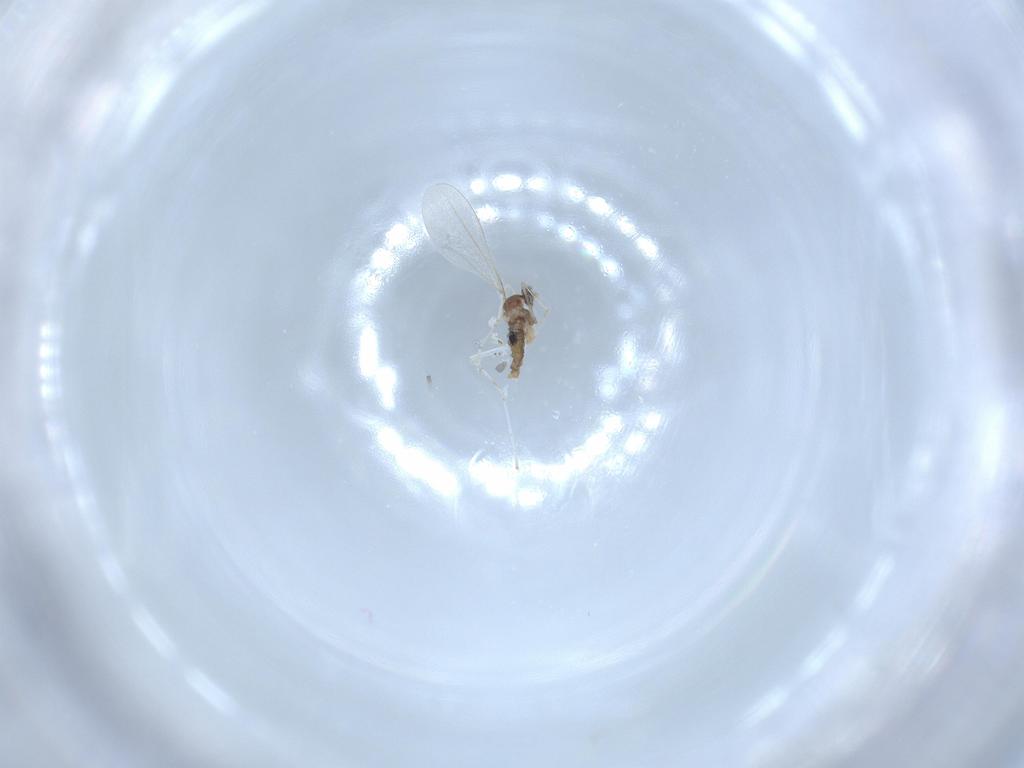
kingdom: Animalia
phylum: Arthropoda
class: Insecta
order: Diptera
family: Cecidomyiidae
